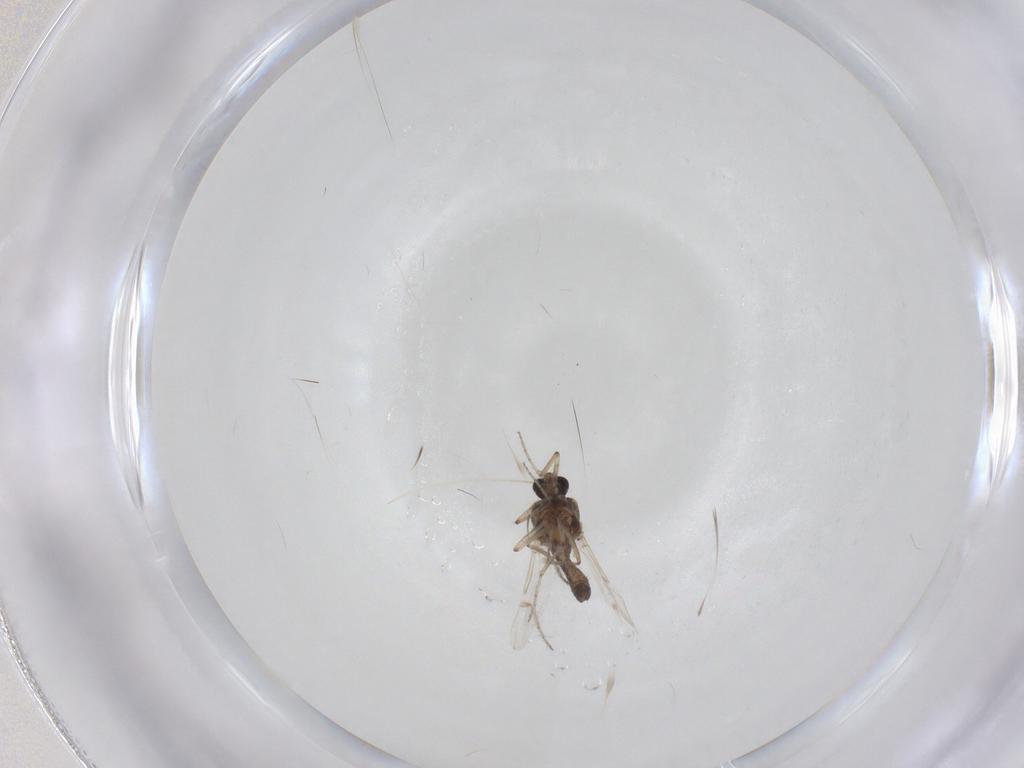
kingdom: Animalia
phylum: Arthropoda
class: Insecta
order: Diptera
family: Ceratopogonidae
